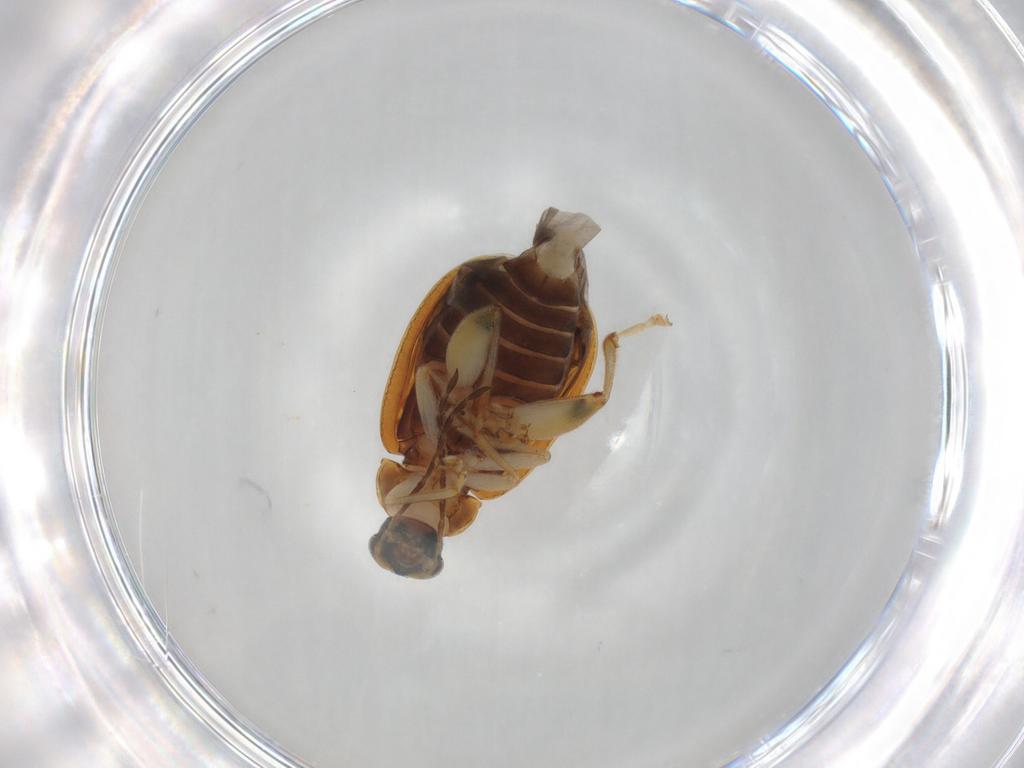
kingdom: Animalia
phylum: Arthropoda
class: Insecta
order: Coleoptera
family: Chrysomelidae
